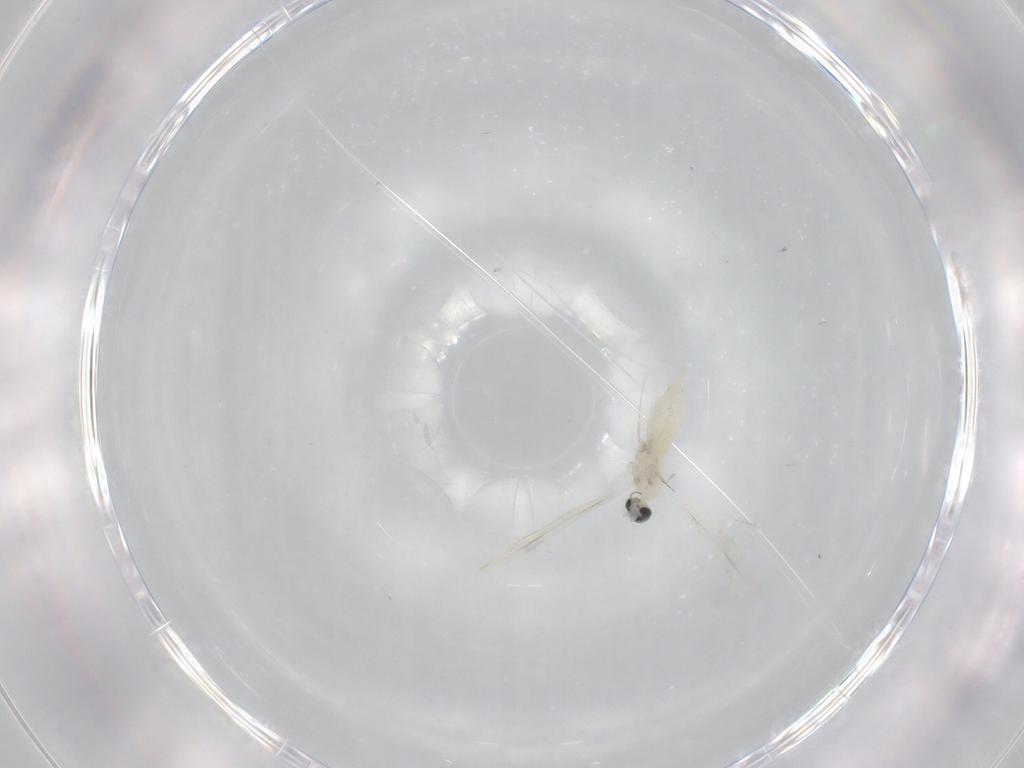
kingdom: Animalia
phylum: Arthropoda
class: Insecta
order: Diptera
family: Cecidomyiidae
